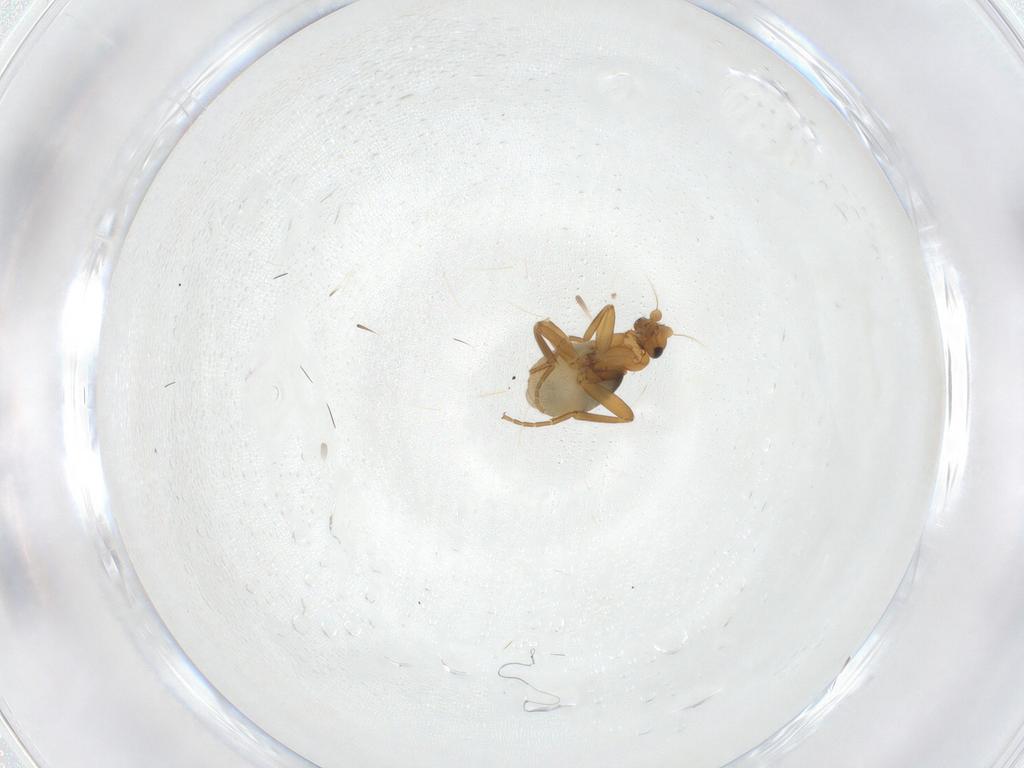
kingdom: Animalia
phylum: Arthropoda
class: Insecta
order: Diptera
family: Phoridae
